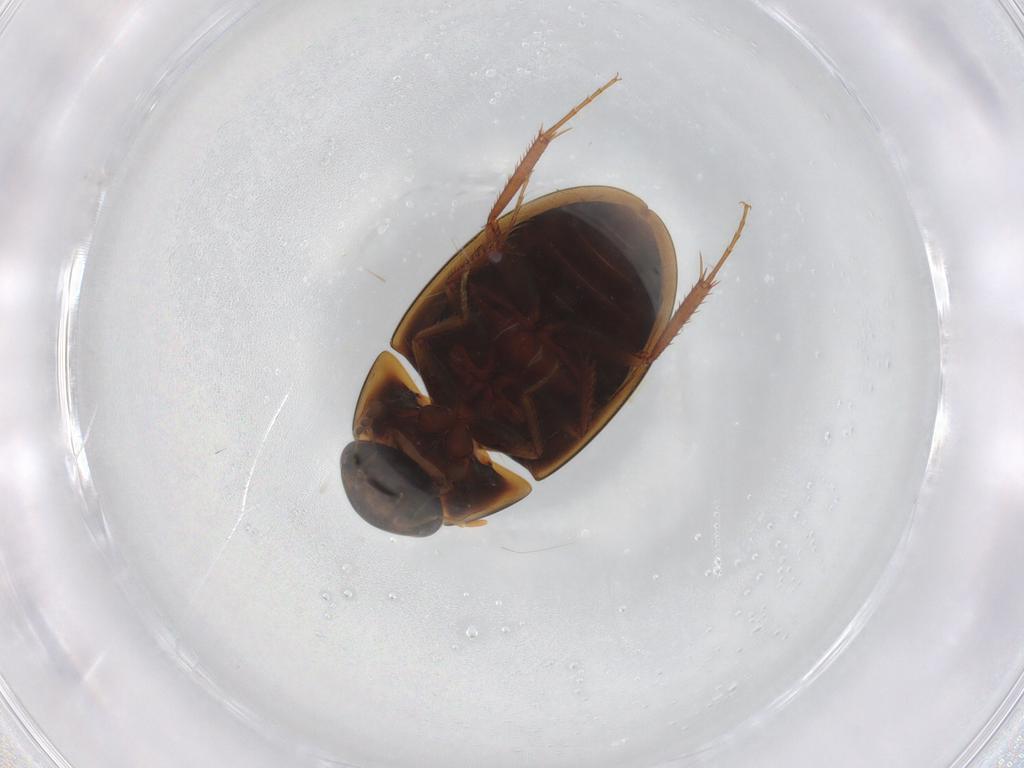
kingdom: Animalia
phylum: Arthropoda
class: Insecta
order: Coleoptera
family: Hydrophilidae
